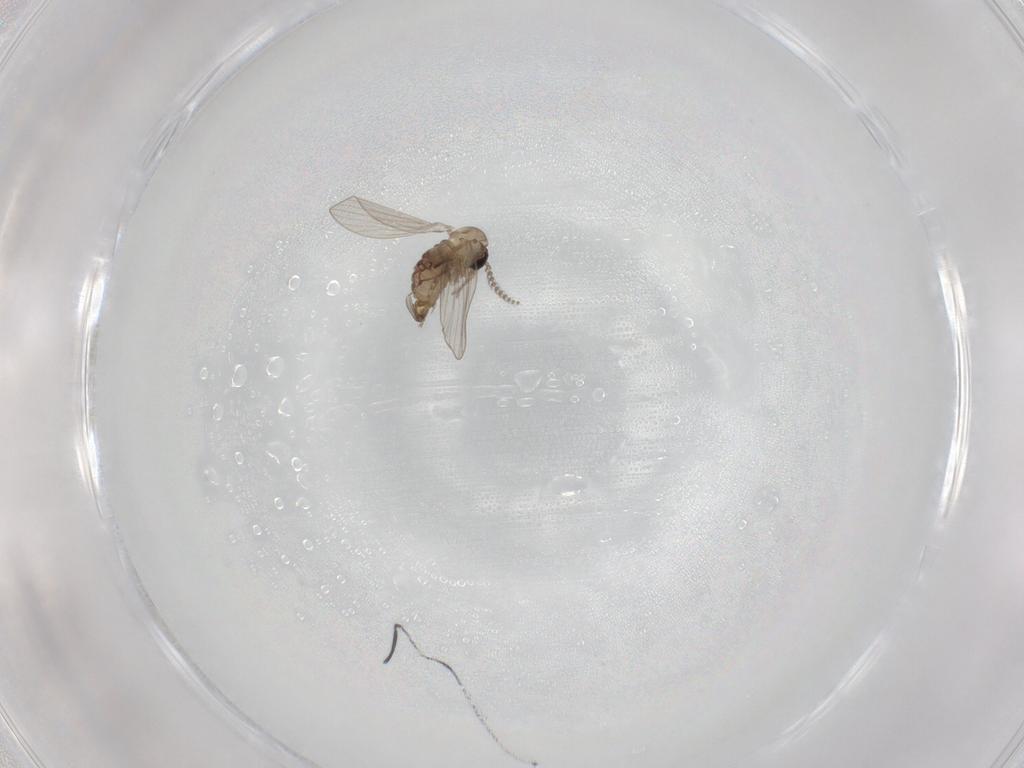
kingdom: Animalia
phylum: Arthropoda
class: Insecta
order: Diptera
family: Psychodidae
